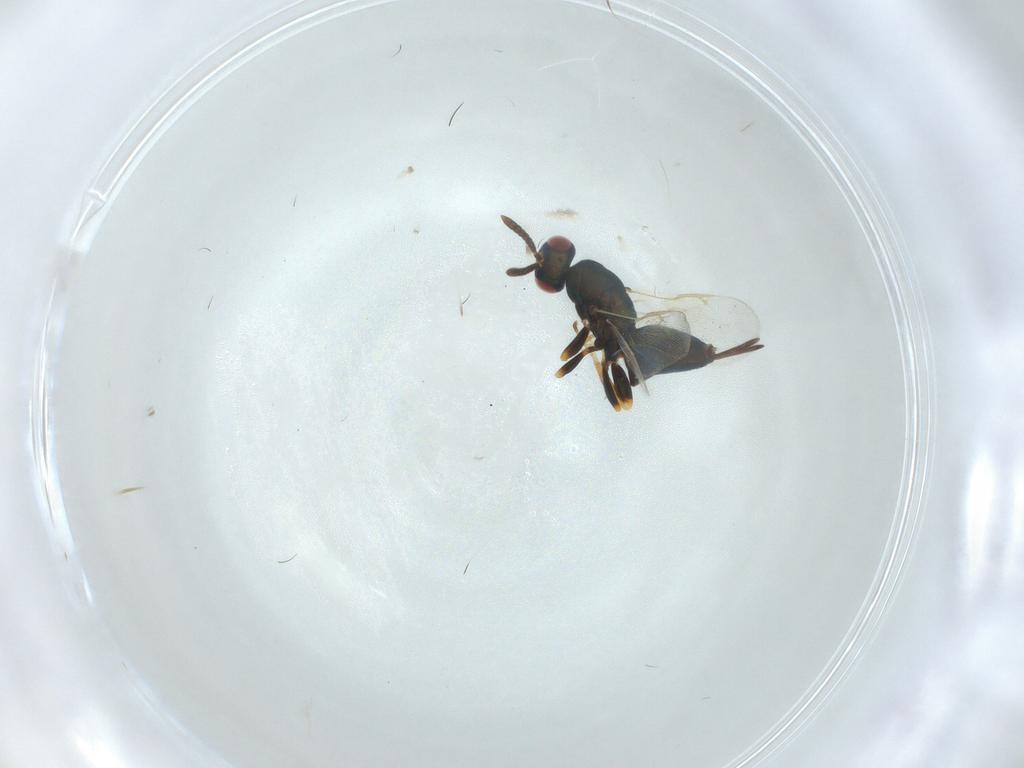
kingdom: Animalia
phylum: Arthropoda
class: Insecta
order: Hymenoptera
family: Torymidae
